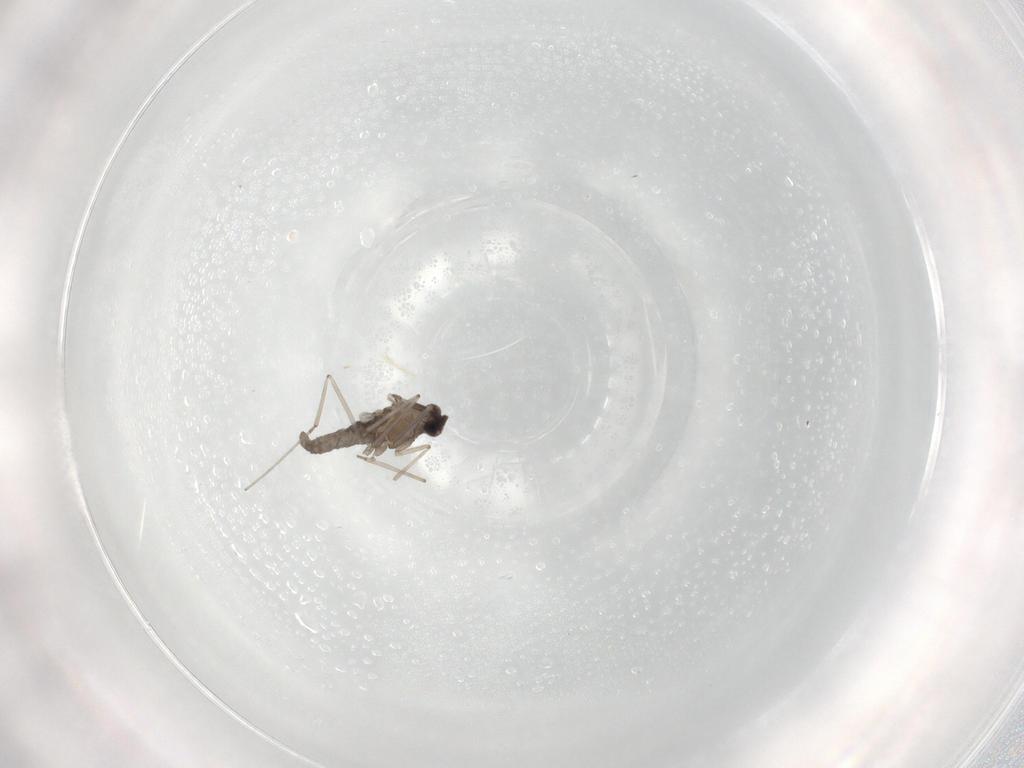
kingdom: Animalia
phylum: Arthropoda
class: Insecta
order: Diptera
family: Cecidomyiidae
